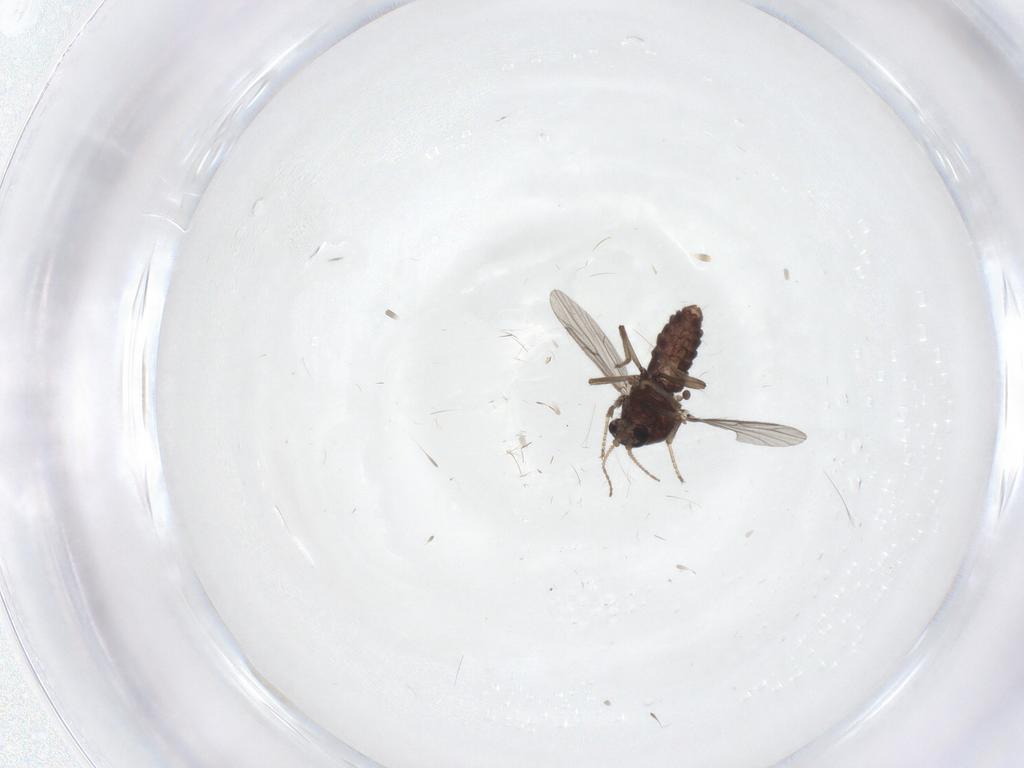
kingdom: Animalia
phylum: Arthropoda
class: Insecta
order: Diptera
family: Ceratopogonidae
